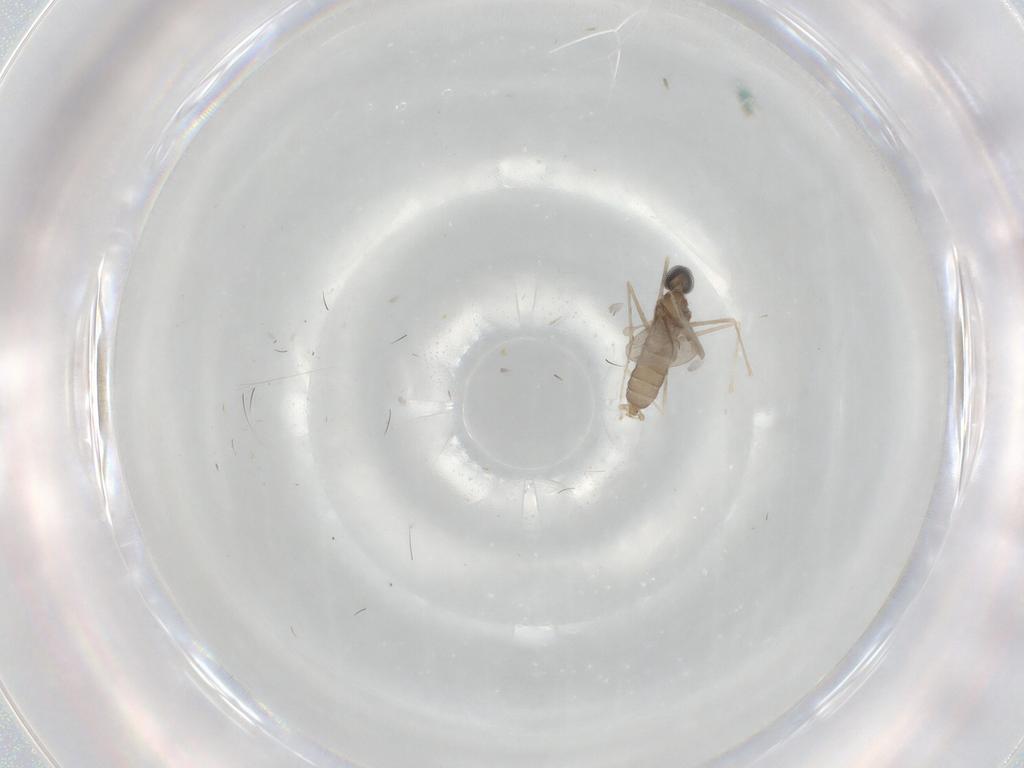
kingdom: Animalia
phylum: Arthropoda
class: Insecta
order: Diptera
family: Cecidomyiidae
